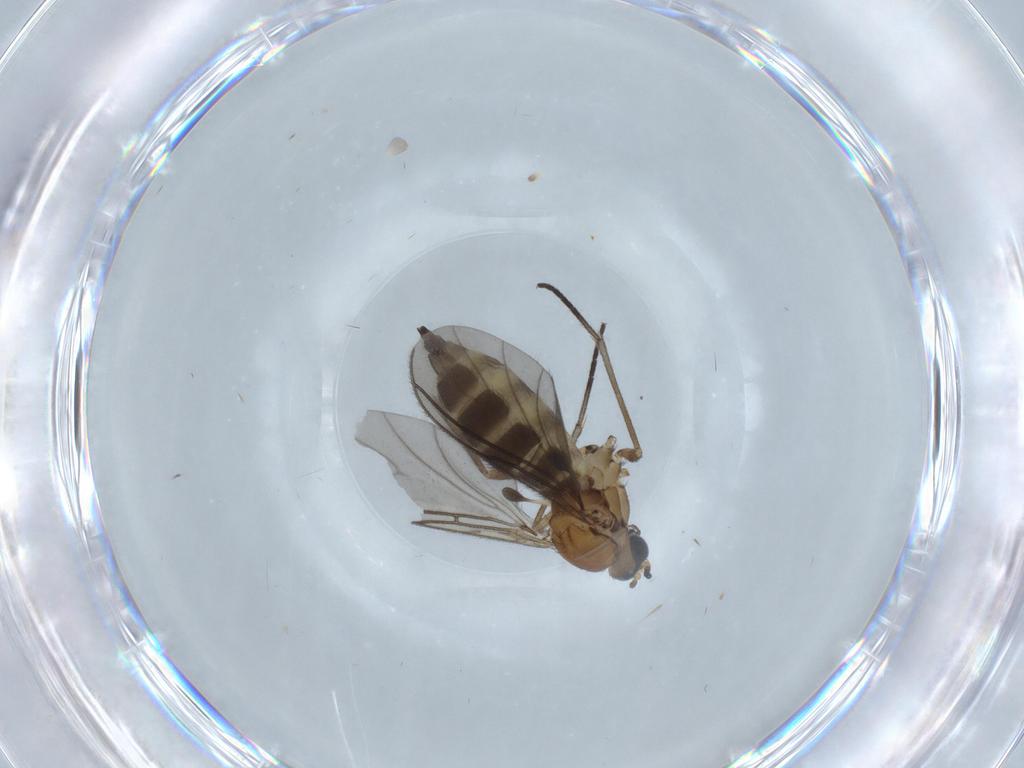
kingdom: Animalia
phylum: Arthropoda
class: Insecta
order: Diptera
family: Sciaridae
